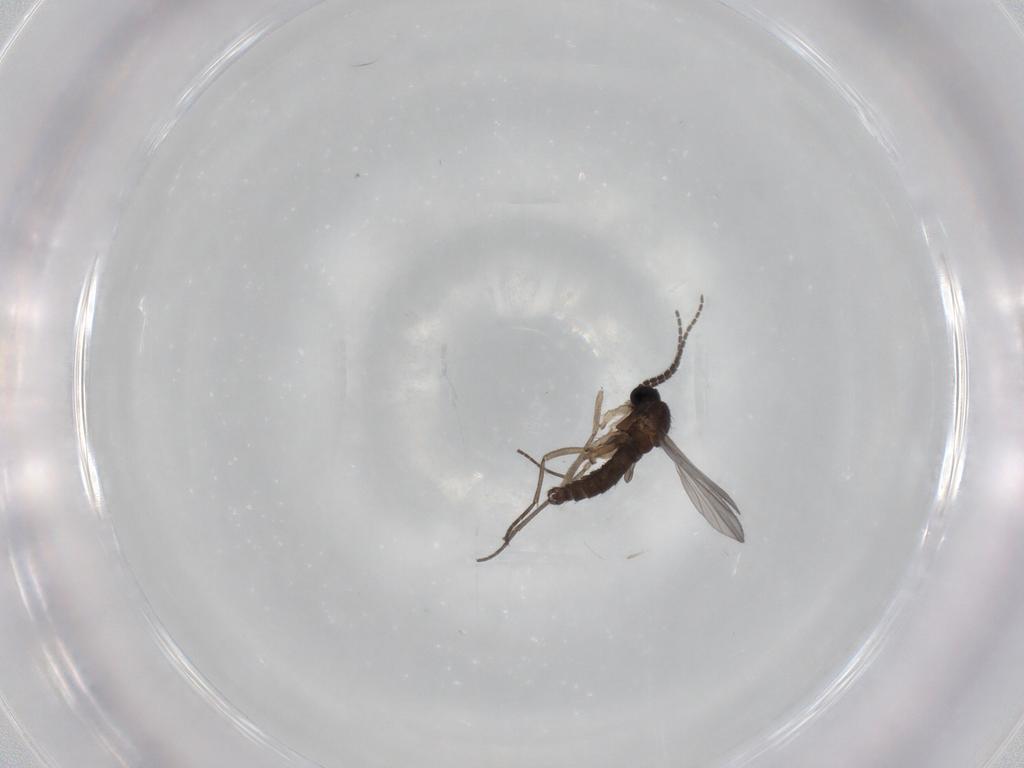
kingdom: Animalia
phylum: Arthropoda
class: Insecta
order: Diptera
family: Sciaridae
